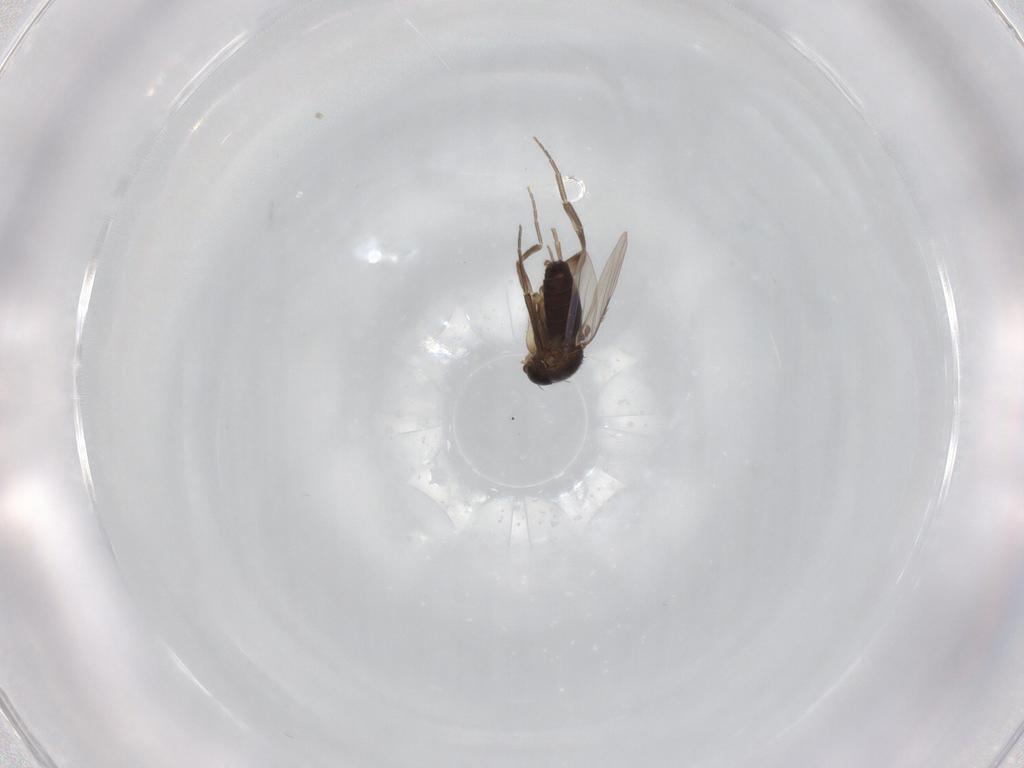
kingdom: Animalia
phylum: Arthropoda
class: Insecta
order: Diptera
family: Phoridae
